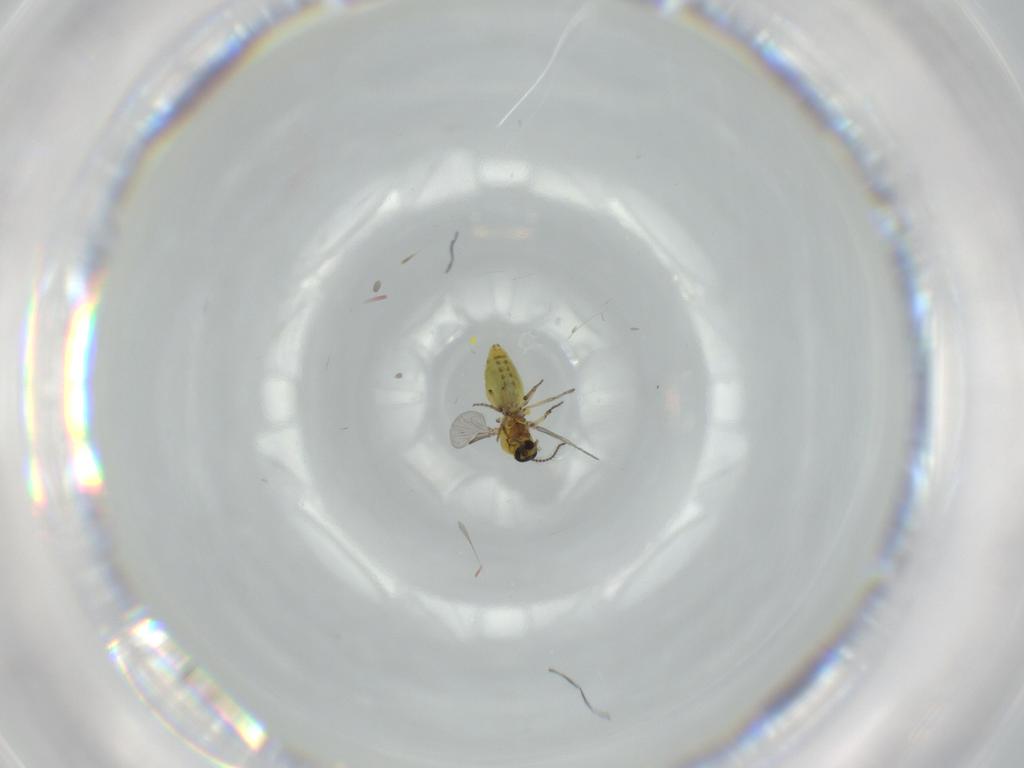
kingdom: Animalia
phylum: Arthropoda
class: Insecta
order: Diptera
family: Ceratopogonidae
